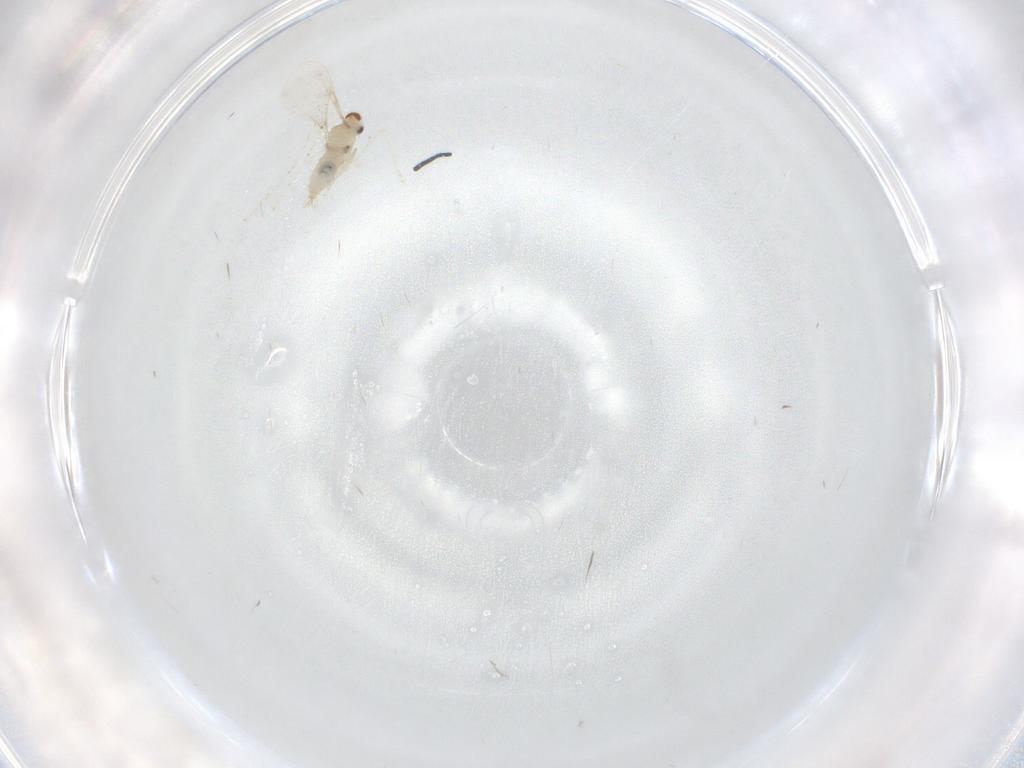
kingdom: Animalia
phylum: Arthropoda
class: Insecta
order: Diptera
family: Cecidomyiidae
